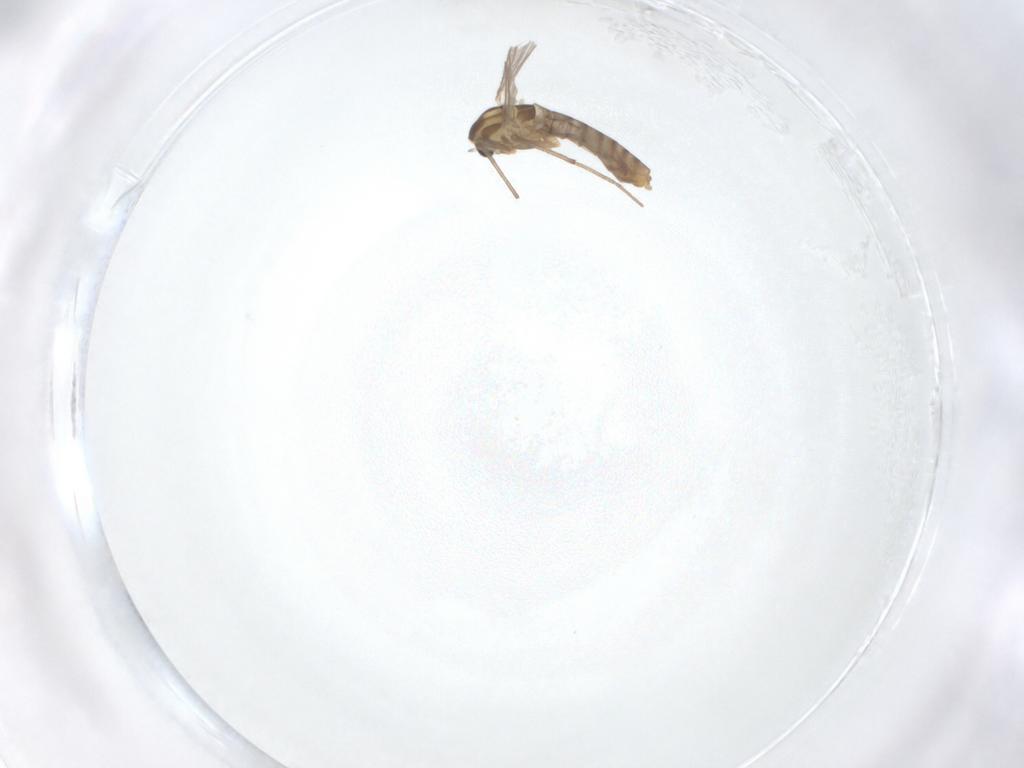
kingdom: Animalia
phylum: Arthropoda
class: Insecta
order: Diptera
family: Chironomidae
